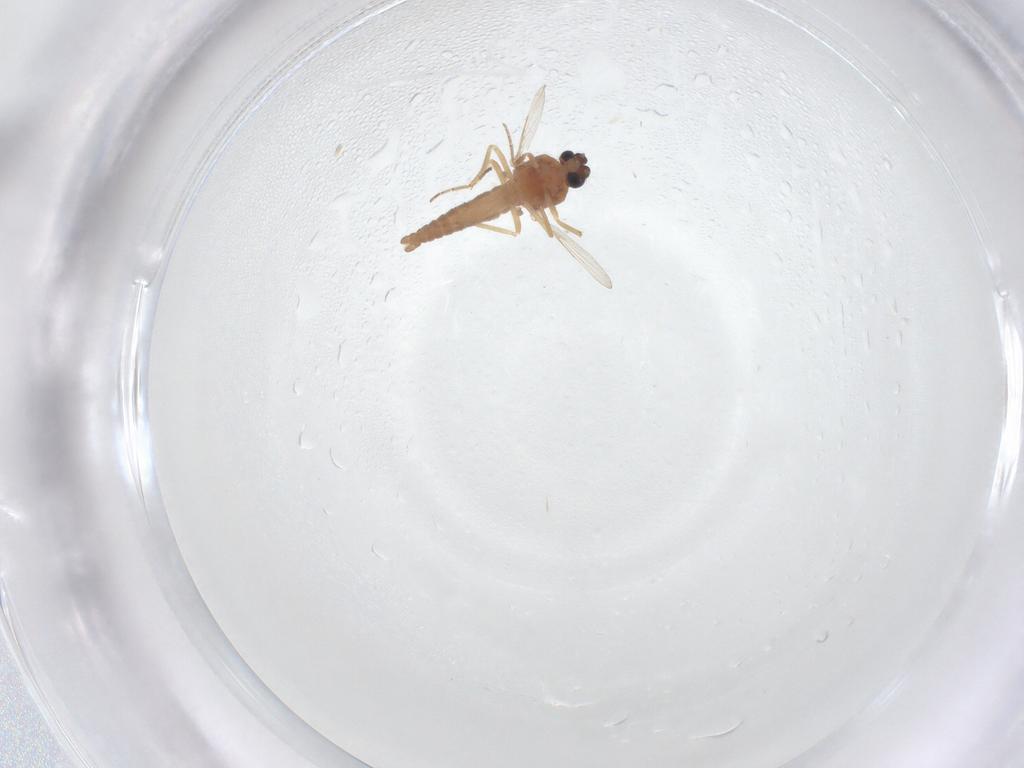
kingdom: Animalia
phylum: Arthropoda
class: Insecta
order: Diptera
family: Ceratopogonidae
